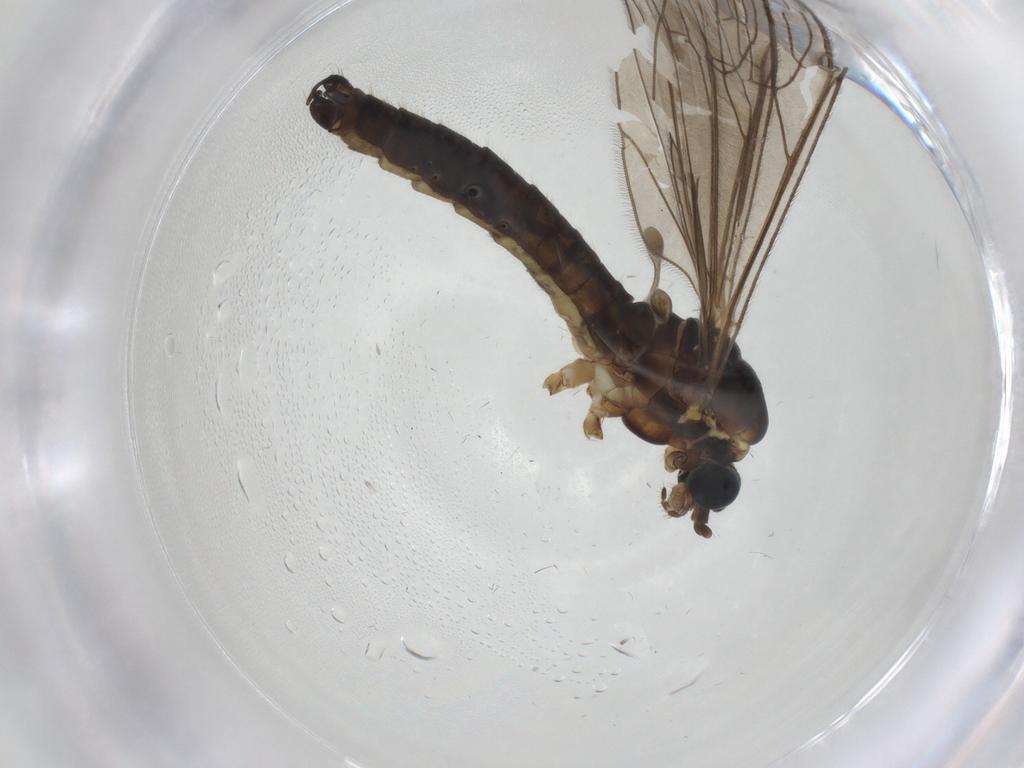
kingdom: Animalia
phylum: Arthropoda
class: Insecta
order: Diptera
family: Limoniidae
